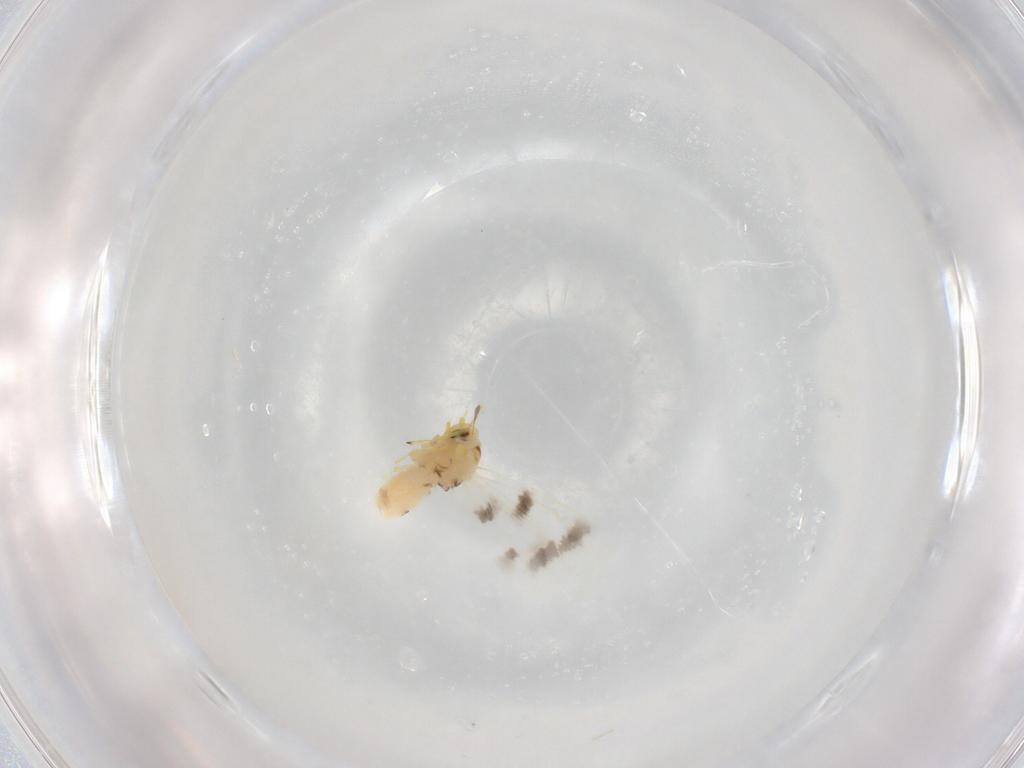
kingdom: Animalia
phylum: Arthropoda
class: Insecta
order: Hemiptera
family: Aleyrodidae
